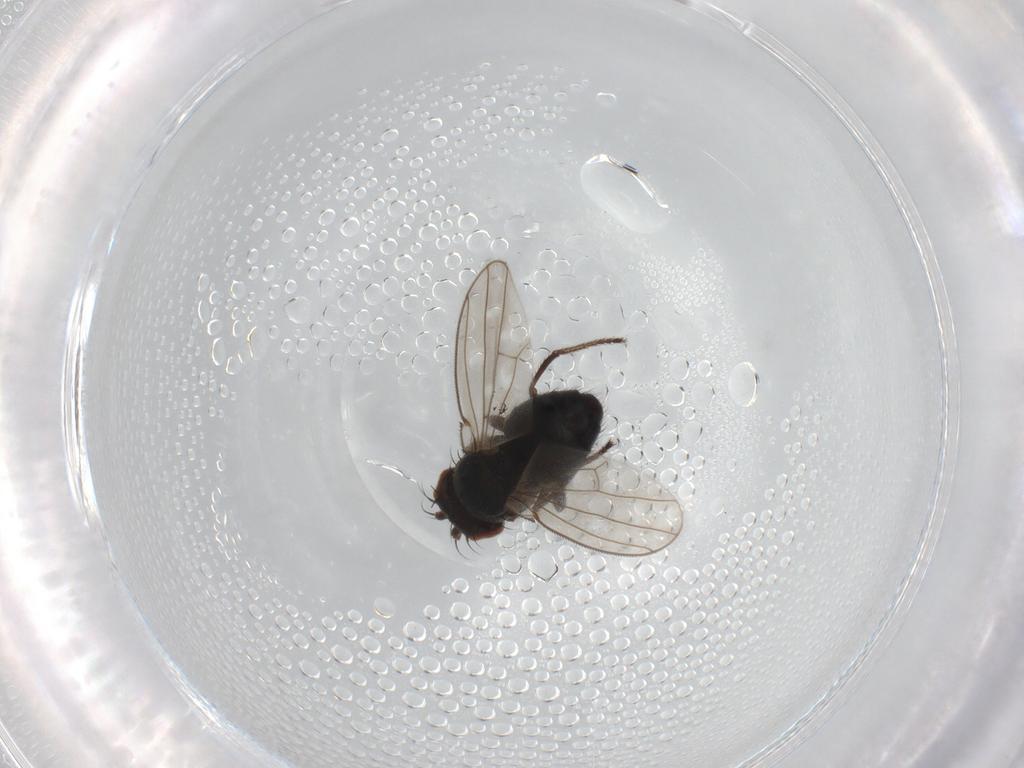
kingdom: Animalia
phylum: Arthropoda
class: Insecta
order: Diptera
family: Ephydridae
